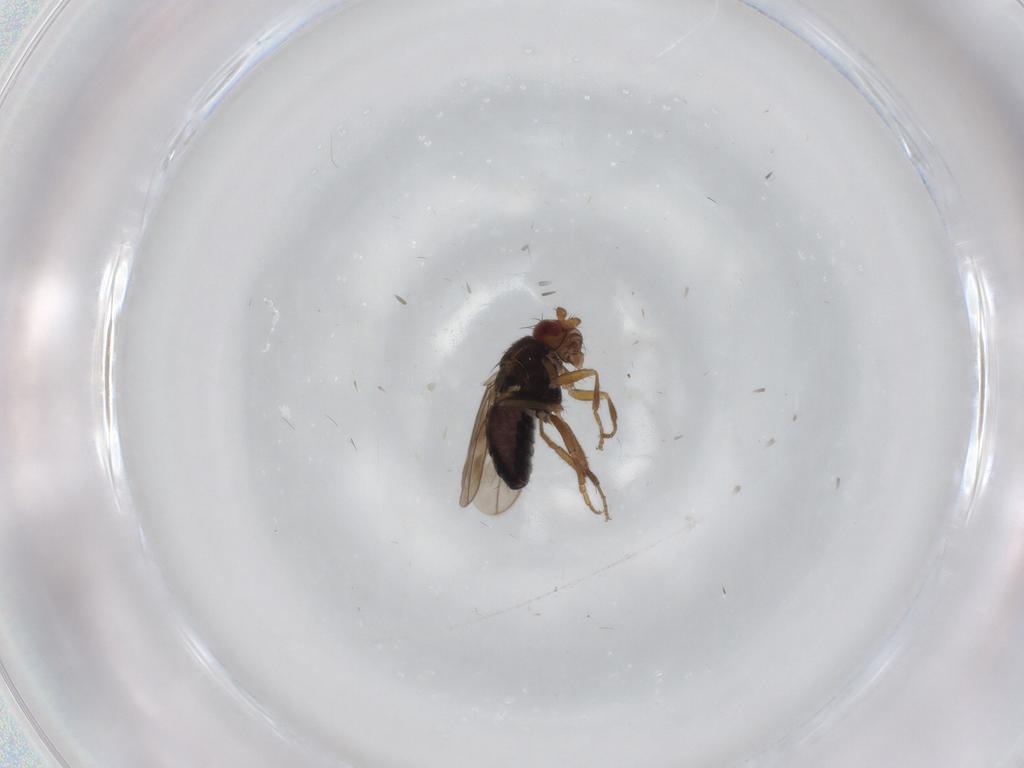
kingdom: Animalia
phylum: Arthropoda
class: Insecta
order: Diptera
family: Sphaeroceridae
